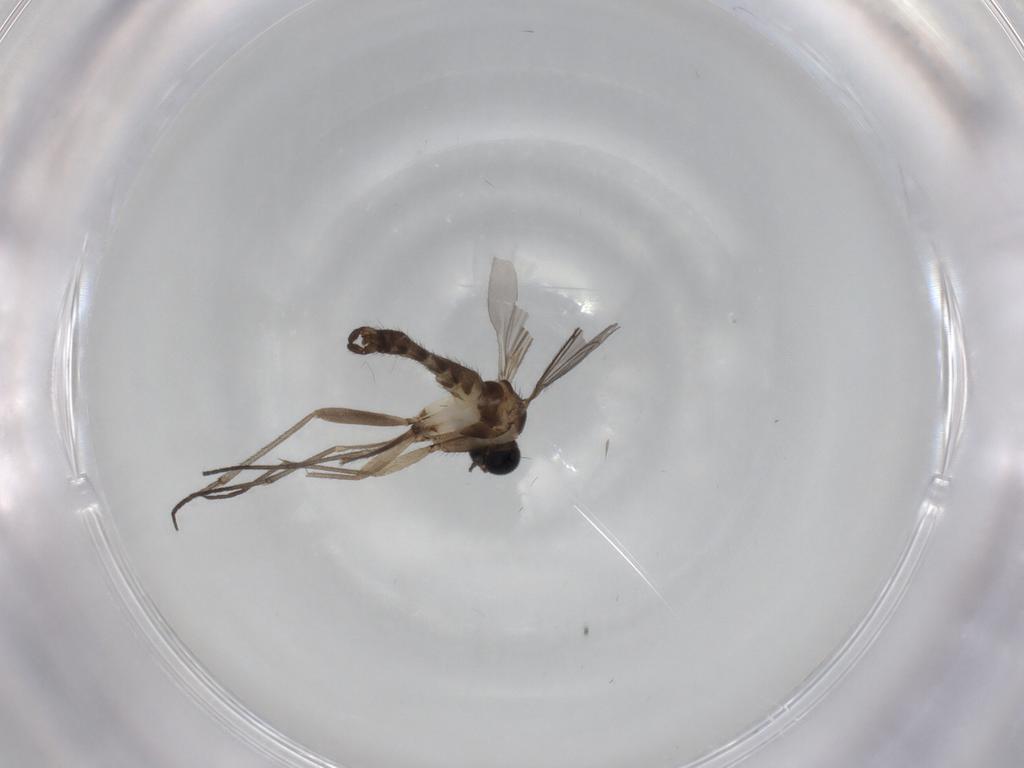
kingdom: Animalia
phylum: Arthropoda
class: Insecta
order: Diptera
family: Sciaridae
